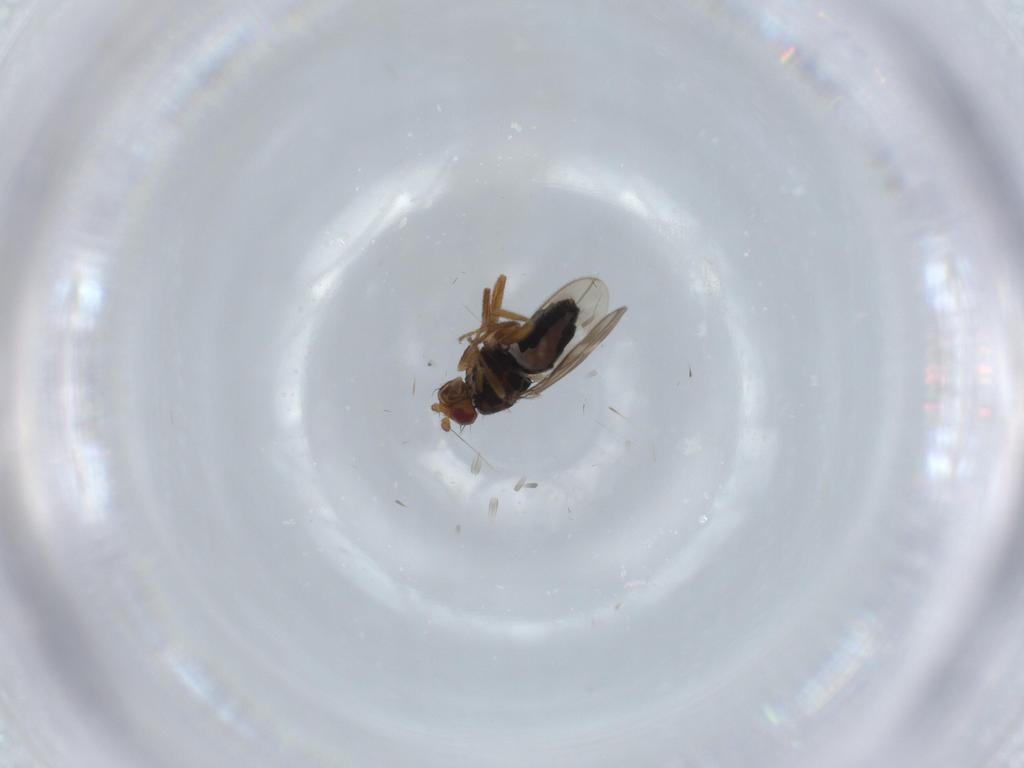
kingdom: Animalia
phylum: Arthropoda
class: Insecta
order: Diptera
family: Sphaeroceridae
